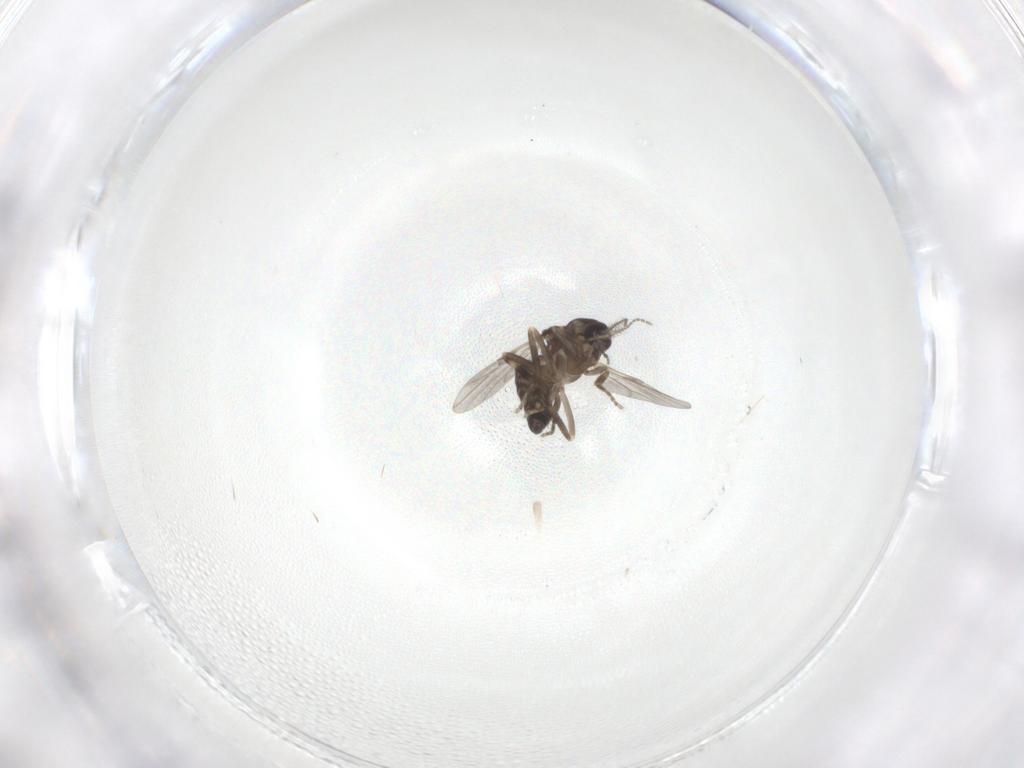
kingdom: Animalia
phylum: Arthropoda
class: Insecta
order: Diptera
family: Ceratopogonidae
